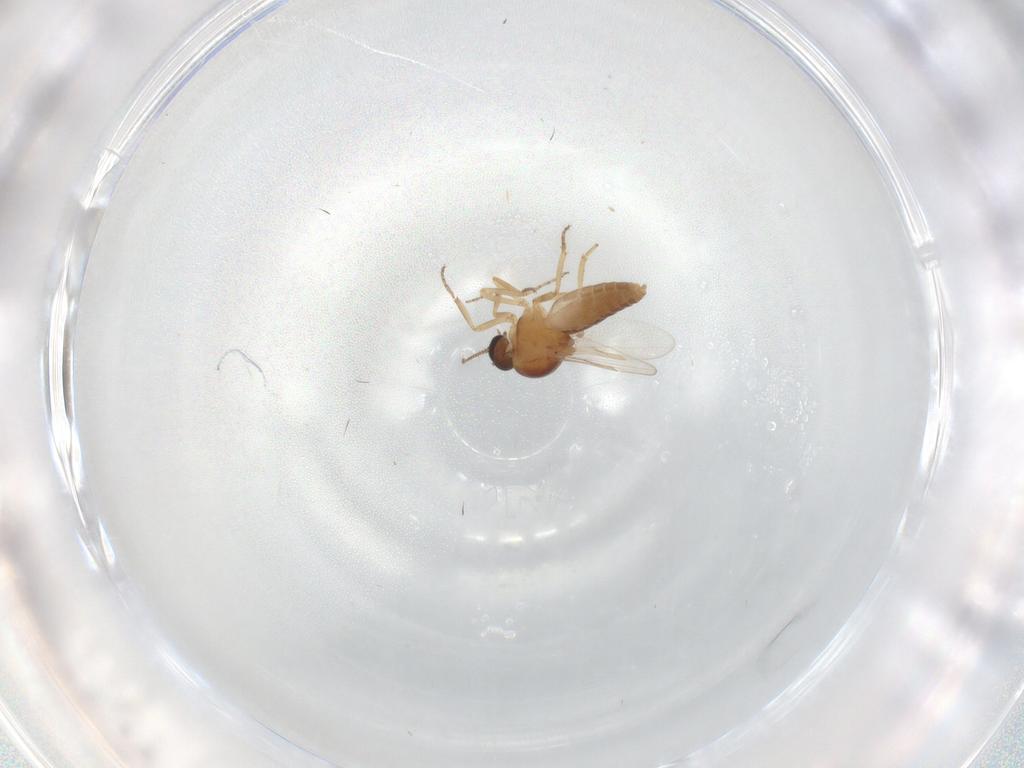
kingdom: Animalia
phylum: Arthropoda
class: Insecta
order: Diptera
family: Ceratopogonidae
